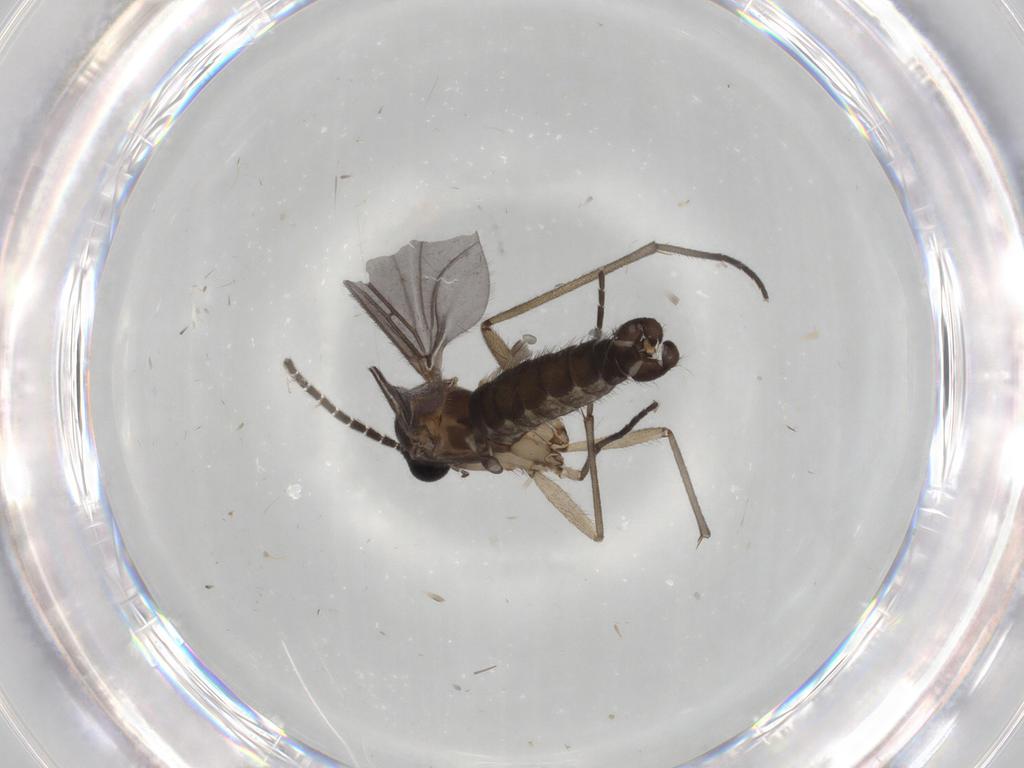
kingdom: Animalia
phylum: Arthropoda
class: Insecta
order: Diptera
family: Sciaridae
